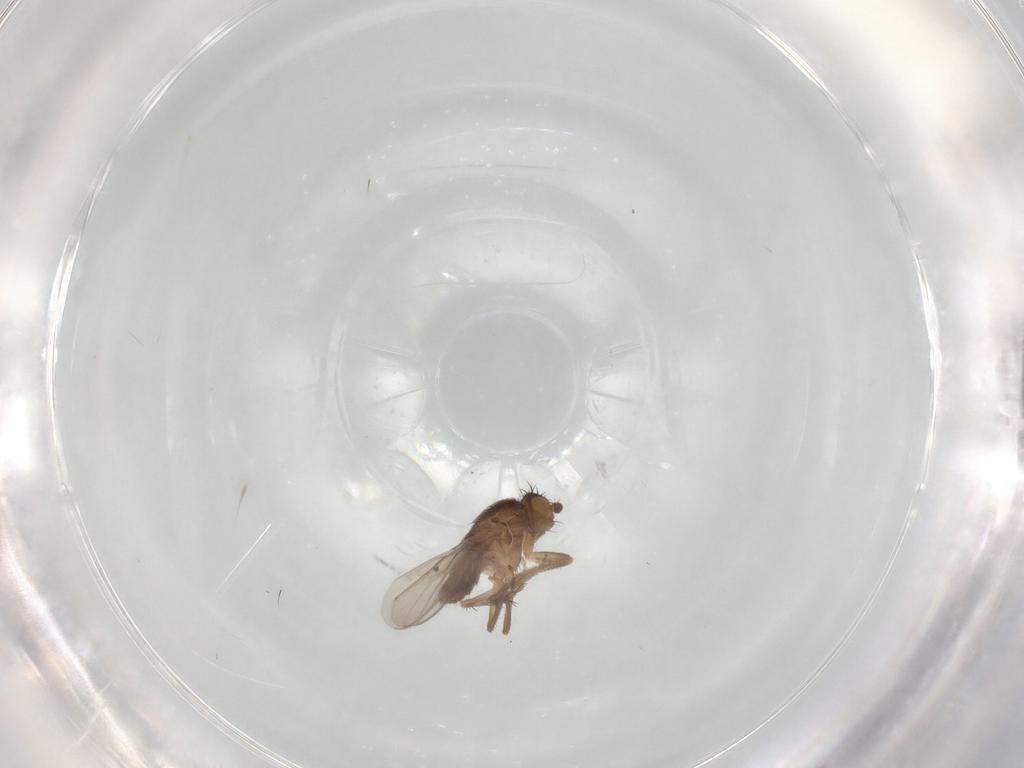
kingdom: Animalia
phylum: Arthropoda
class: Insecta
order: Diptera
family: Sphaeroceridae
